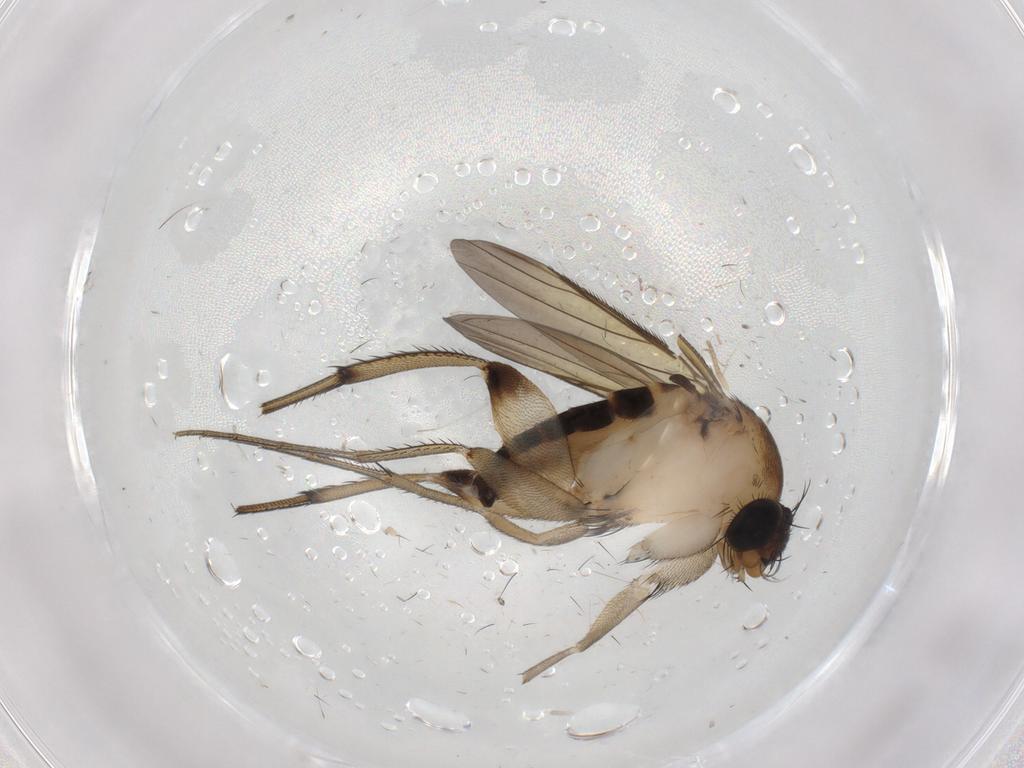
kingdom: Animalia
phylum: Arthropoda
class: Insecta
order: Diptera
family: Phoridae
